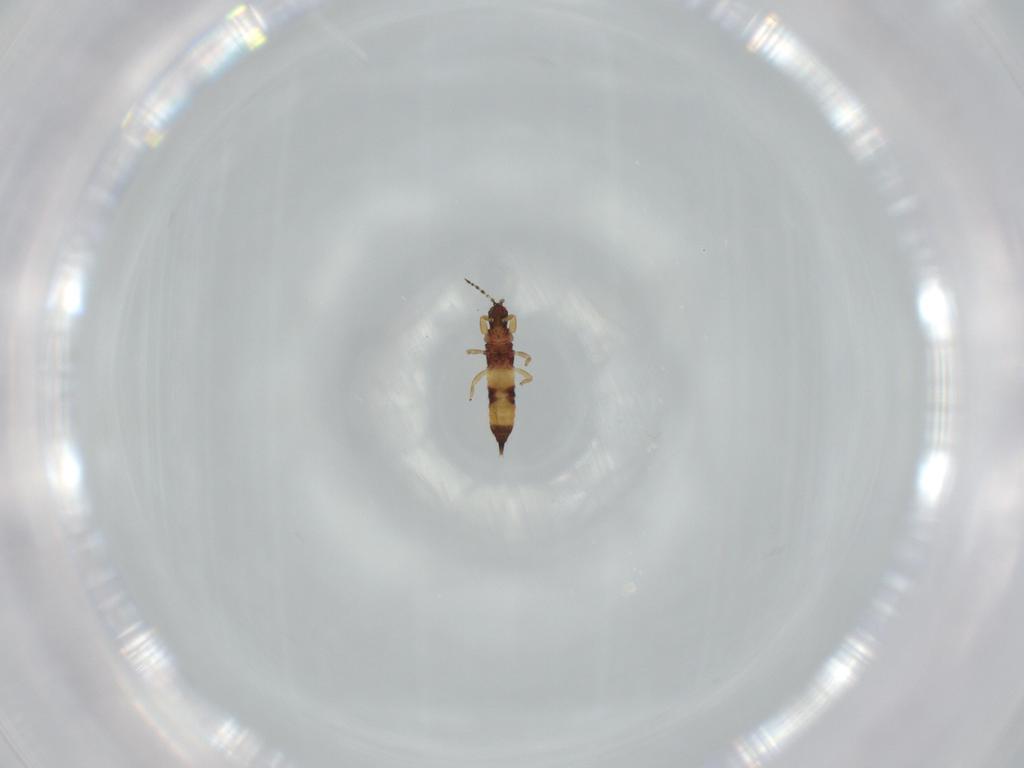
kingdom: Animalia
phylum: Arthropoda
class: Insecta
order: Thysanoptera
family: Phlaeothripidae
